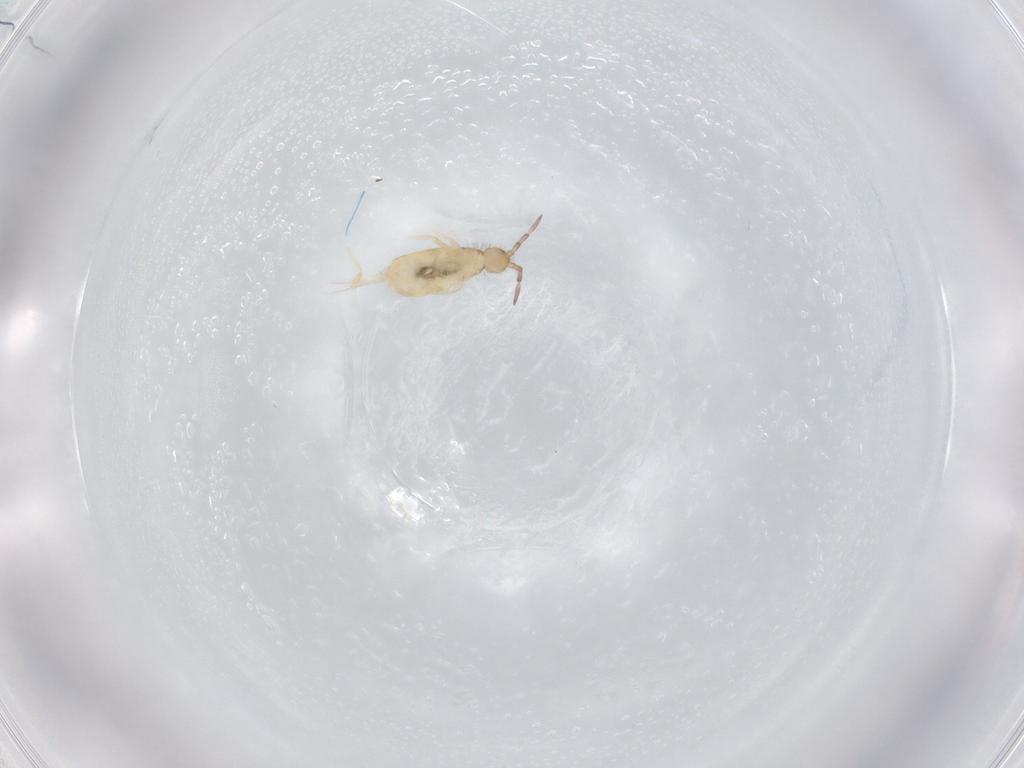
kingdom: Animalia
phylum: Arthropoda
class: Collembola
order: Entomobryomorpha
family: Entomobryidae
